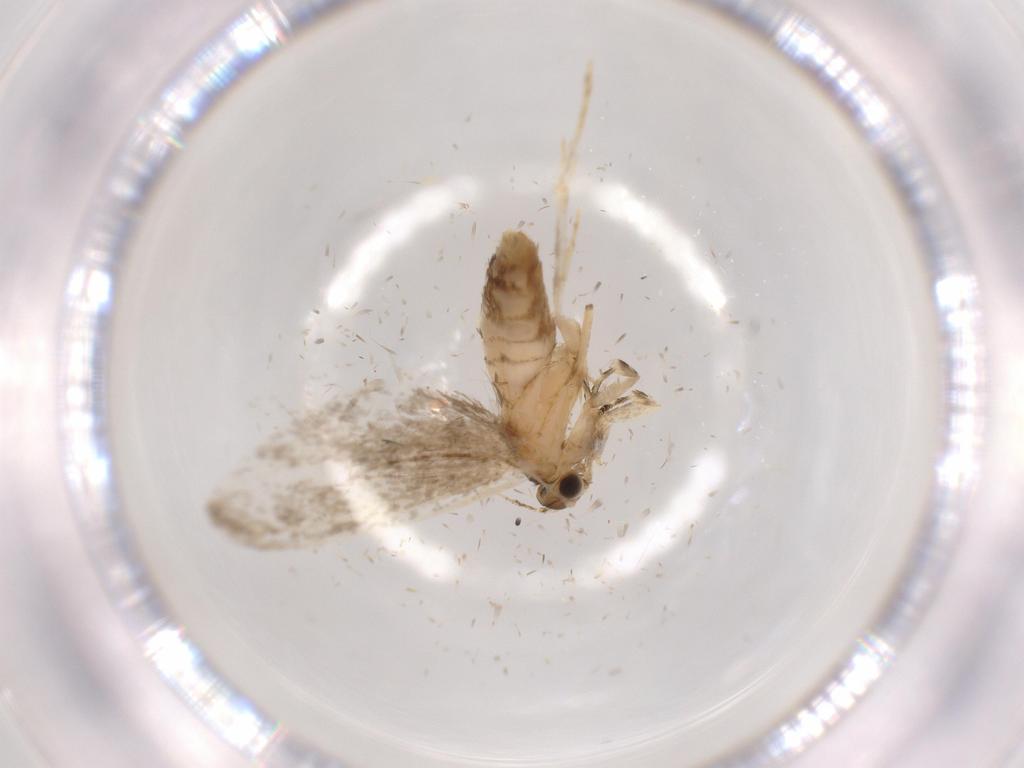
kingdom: Animalia
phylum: Arthropoda
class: Insecta
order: Lepidoptera
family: Tineidae
